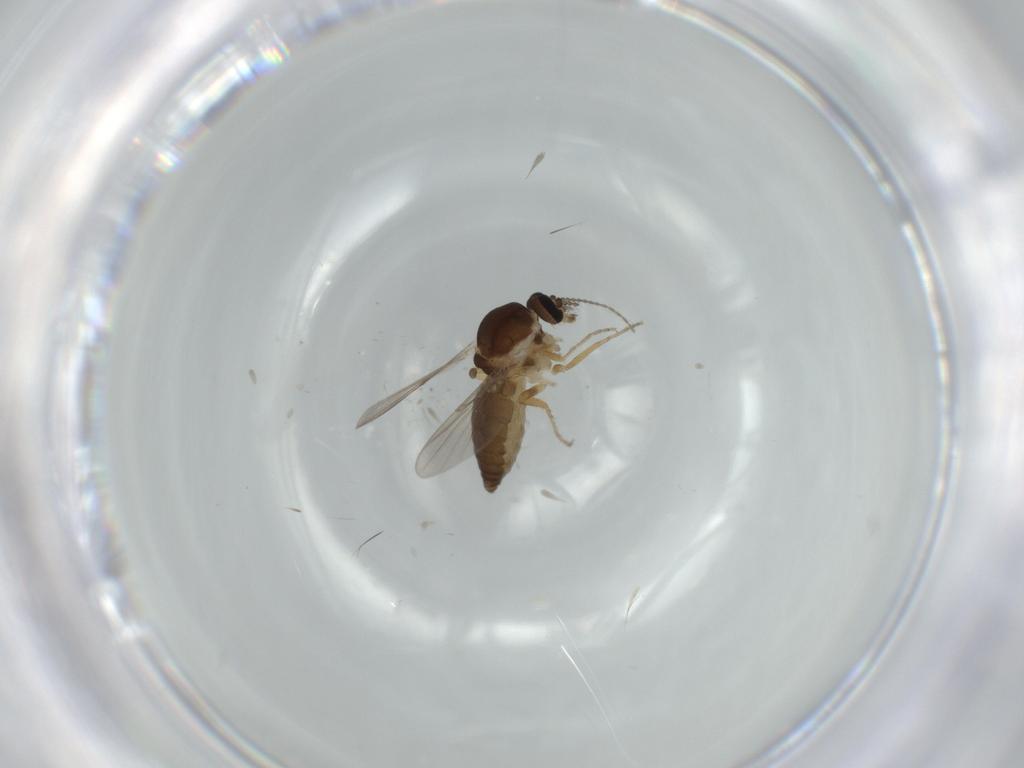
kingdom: Animalia
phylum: Arthropoda
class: Insecta
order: Diptera
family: Ceratopogonidae
